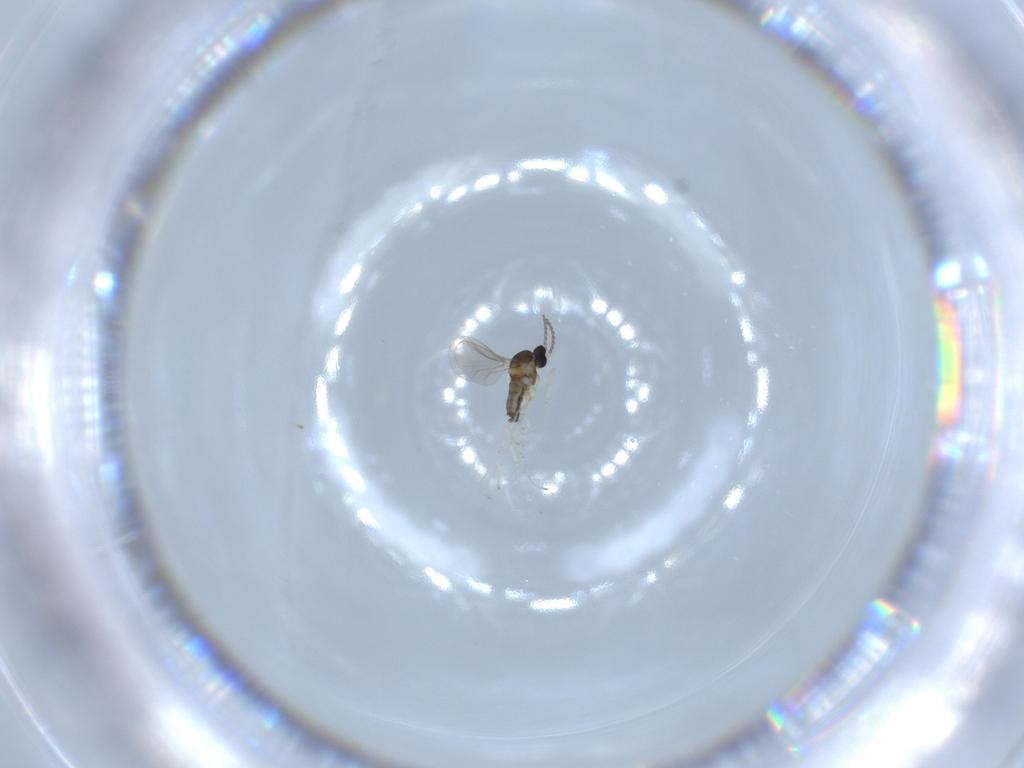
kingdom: Animalia
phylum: Arthropoda
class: Insecta
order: Diptera
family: Cecidomyiidae
